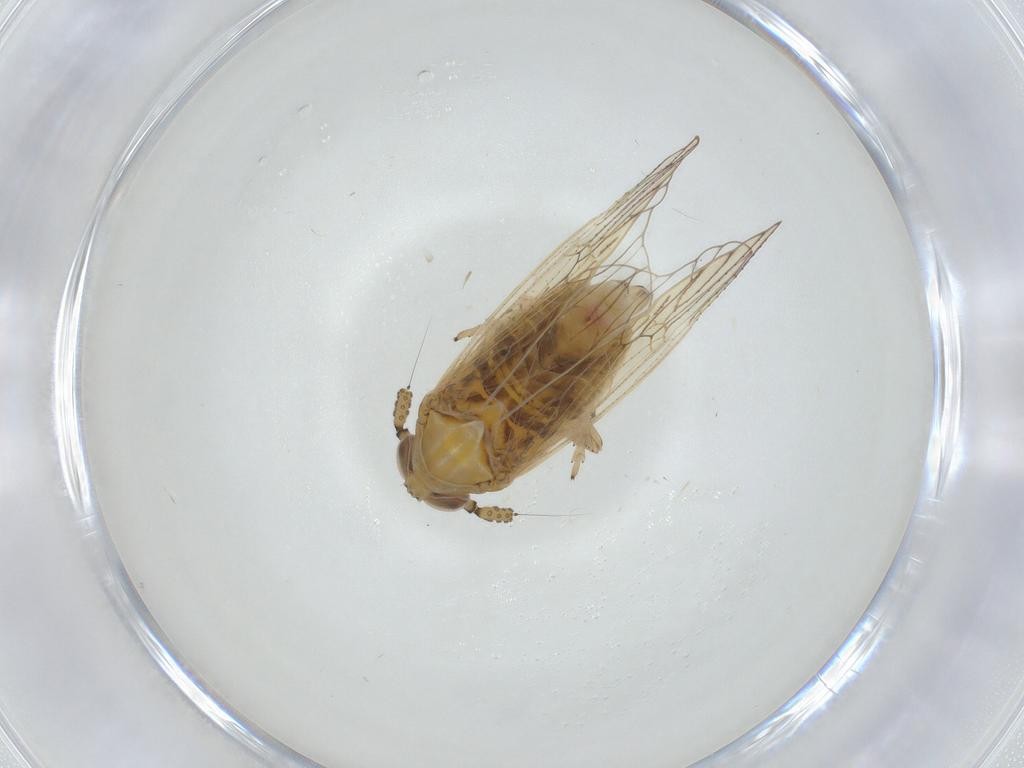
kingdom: Animalia
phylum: Arthropoda
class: Insecta
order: Hemiptera
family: Delphacidae
